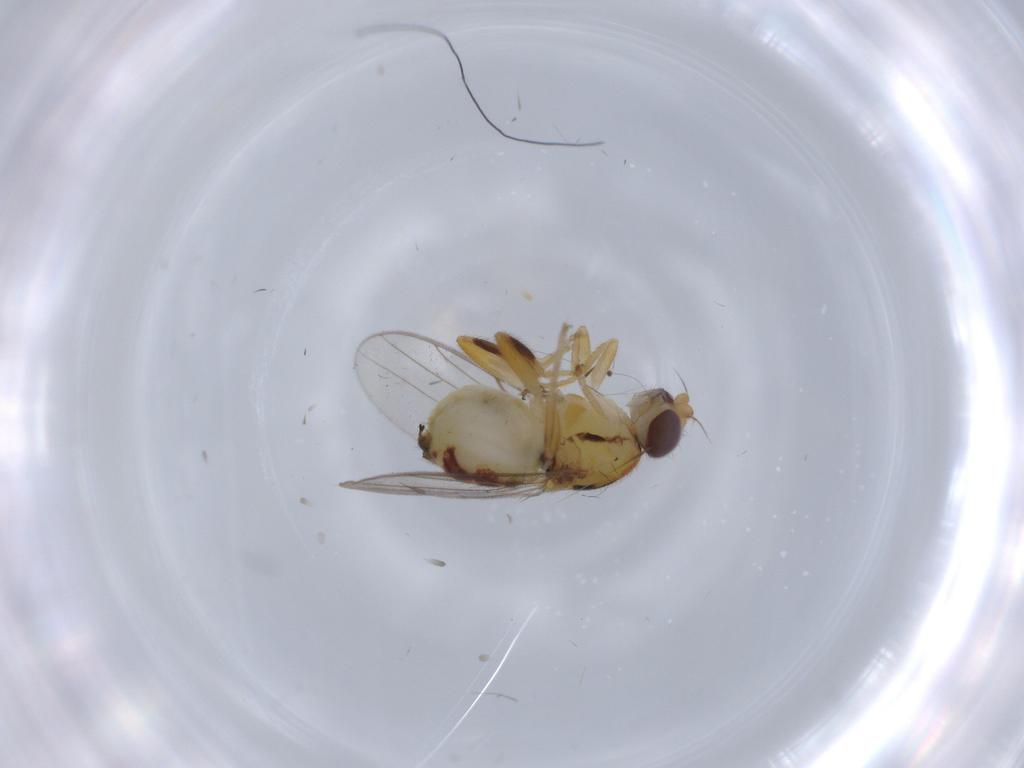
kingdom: Animalia
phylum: Arthropoda
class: Insecta
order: Diptera
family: Chloropidae
